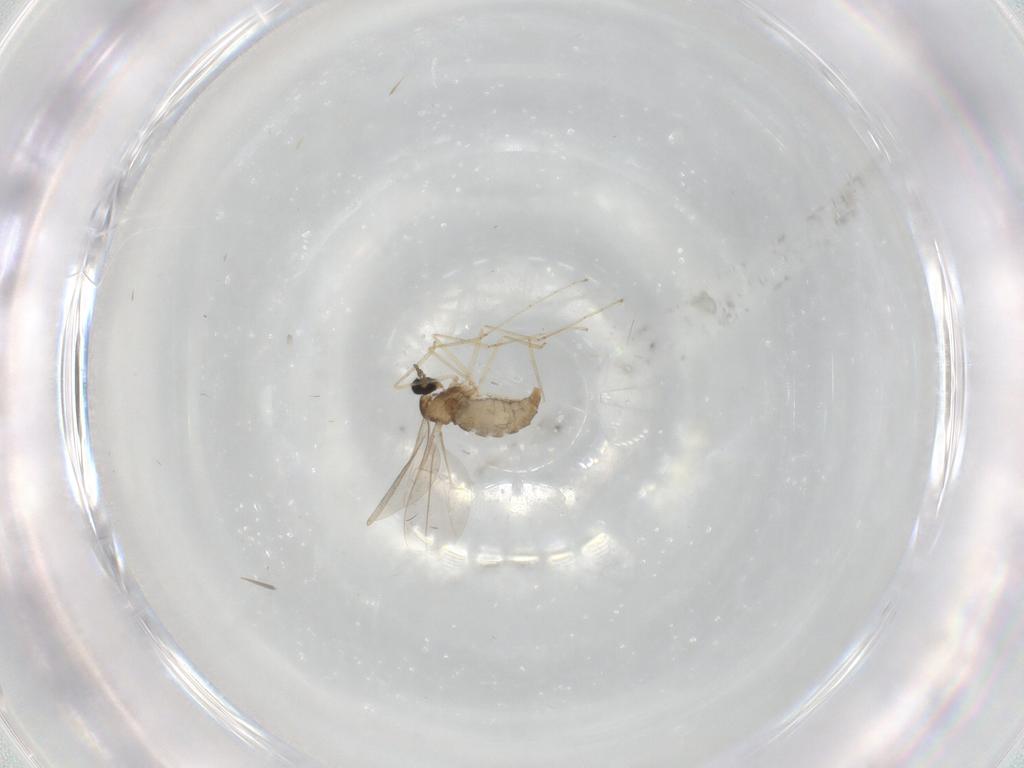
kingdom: Animalia
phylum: Arthropoda
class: Insecta
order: Diptera
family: Cecidomyiidae
